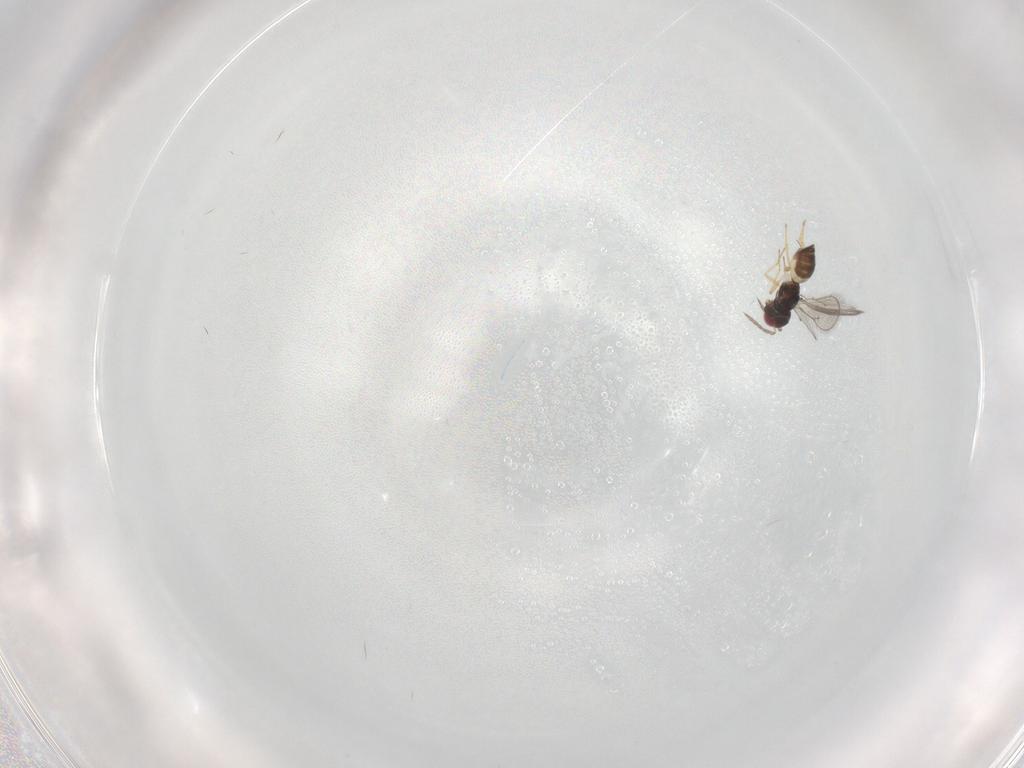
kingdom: Animalia
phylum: Arthropoda
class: Insecta
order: Hymenoptera
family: Eulophidae
